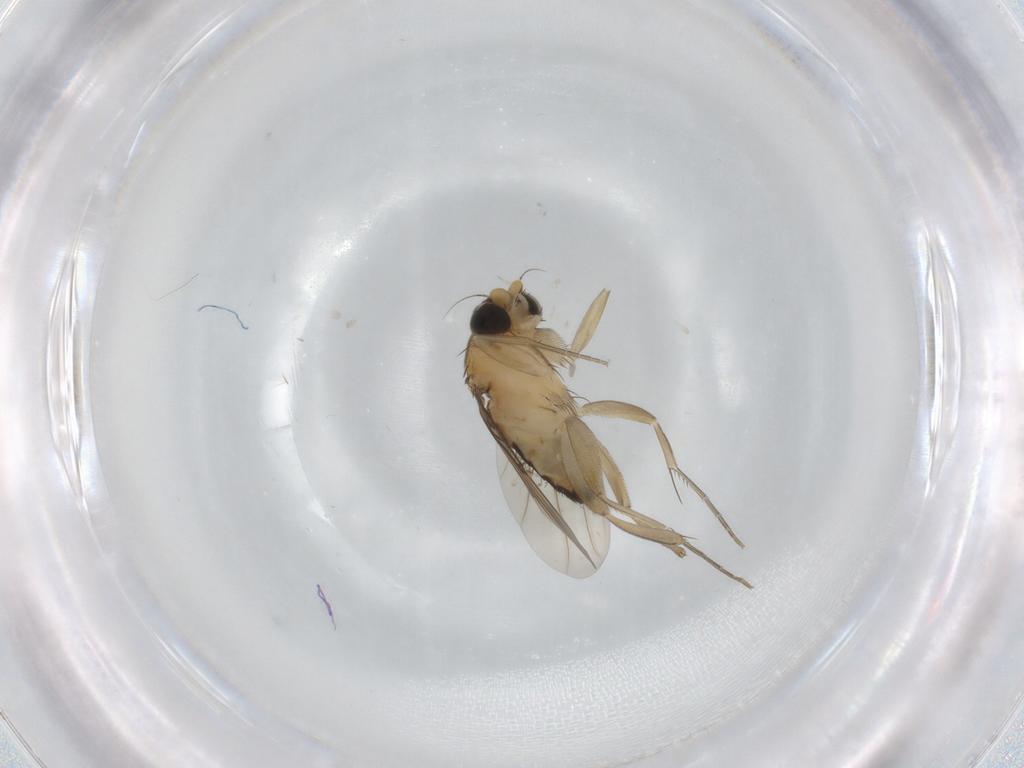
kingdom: Animalia
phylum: Arthropoda
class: Insecta
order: Diptera
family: Phoridae
